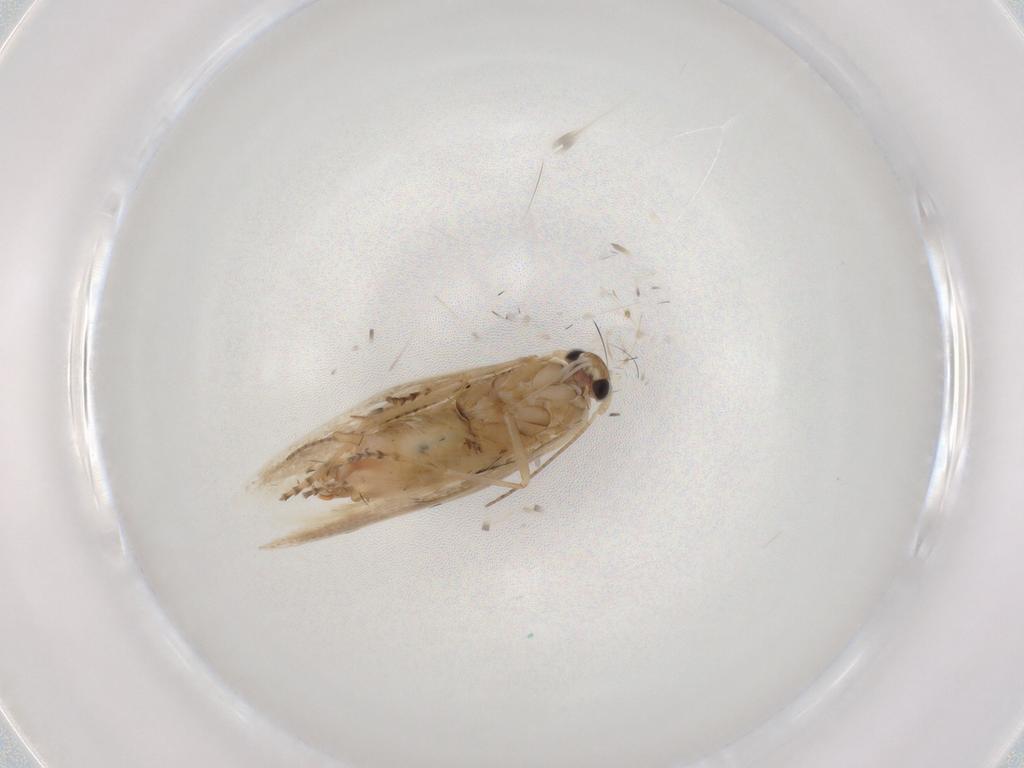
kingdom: Animalia
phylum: Arthropoda
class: Insecta
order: Lepidoptera
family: Bucculatricidae
